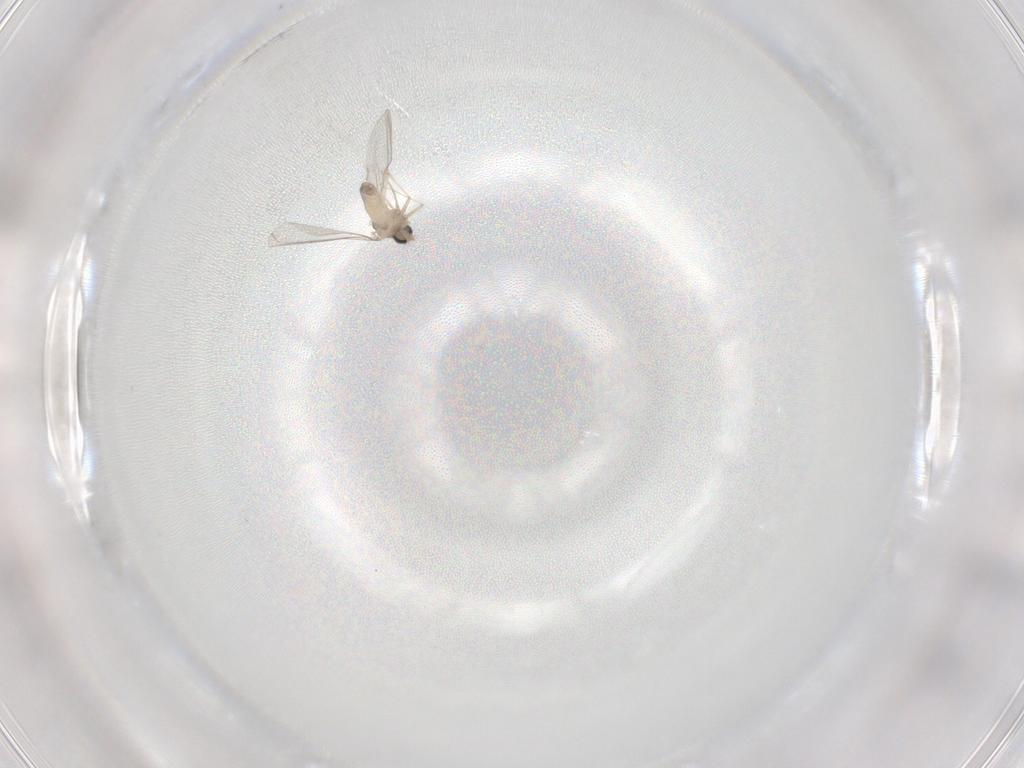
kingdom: Animalia
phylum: Arthropoda
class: Insecta
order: Diptera
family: Cecidomyiidae
